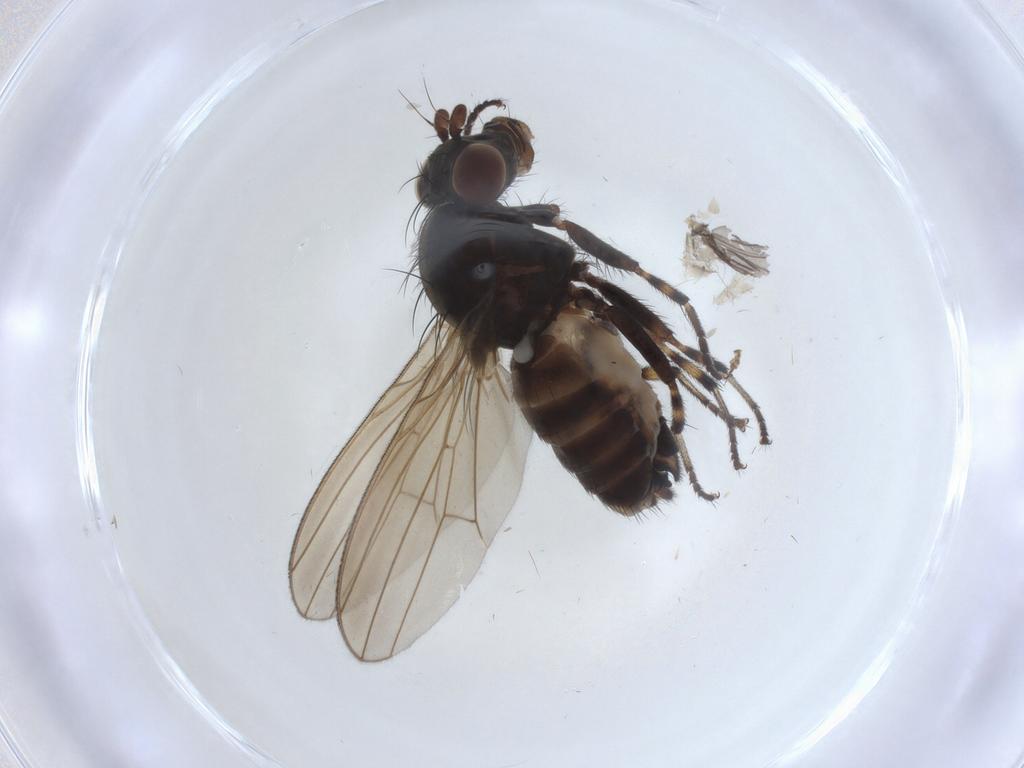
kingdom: Animalia
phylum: Arthropoda
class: Insecta
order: Diptera
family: Lauxaniidae
